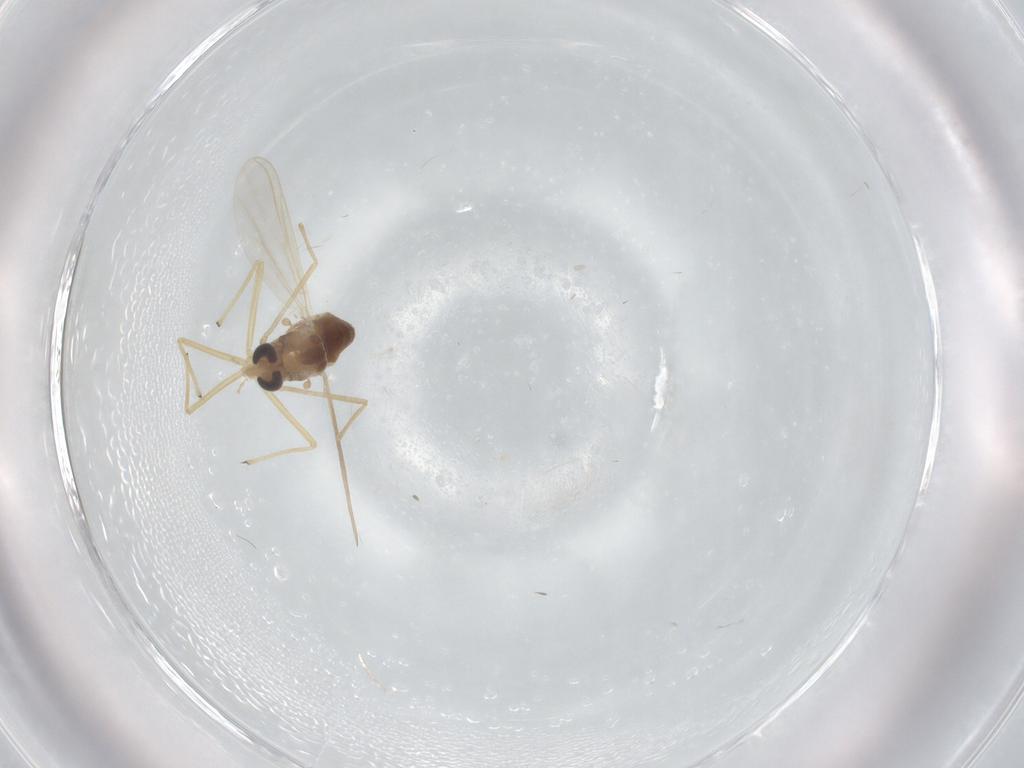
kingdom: Animalia
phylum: Arthropoda
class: Insecta
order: Diptera
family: Chironomidae
